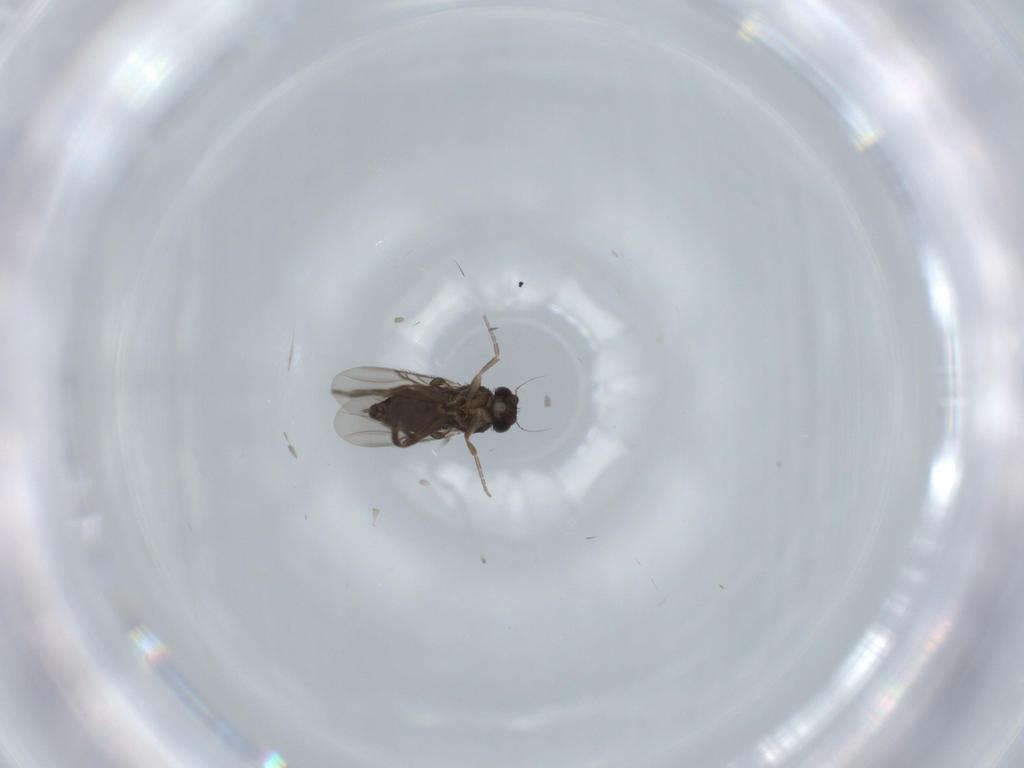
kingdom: Animalia
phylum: Arthropoda
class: Insecta
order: Diptera
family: Phoridae
